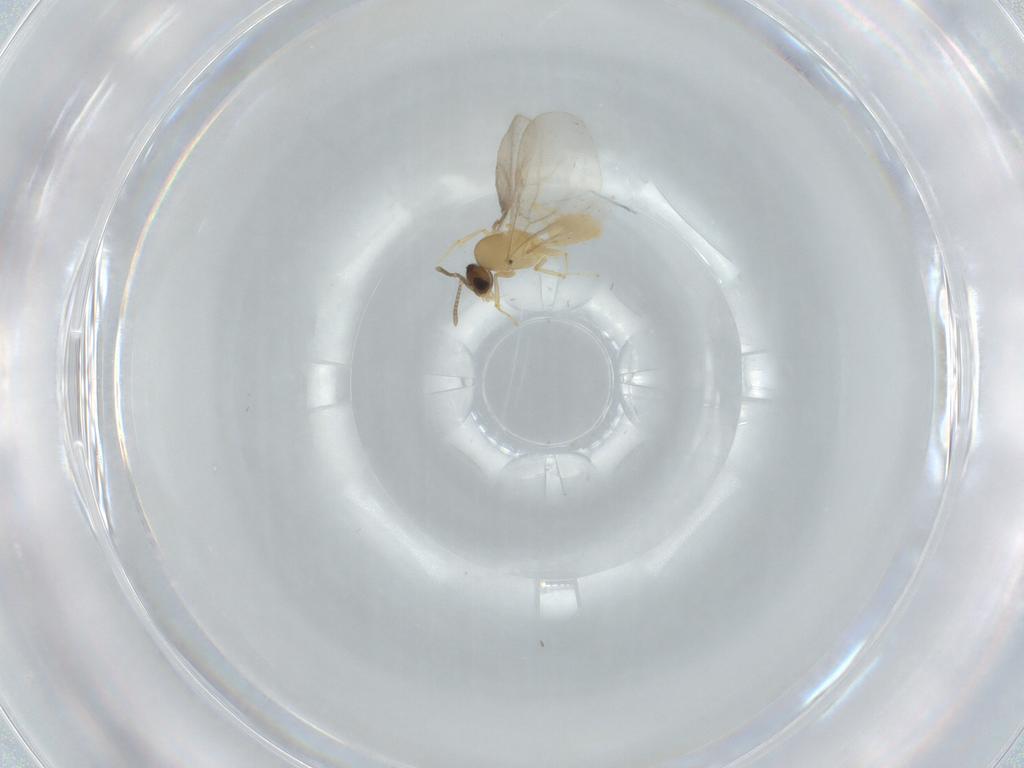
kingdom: Animalia
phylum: Arthropoda
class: Insecta
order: Hymenoptera
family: Formicidae
